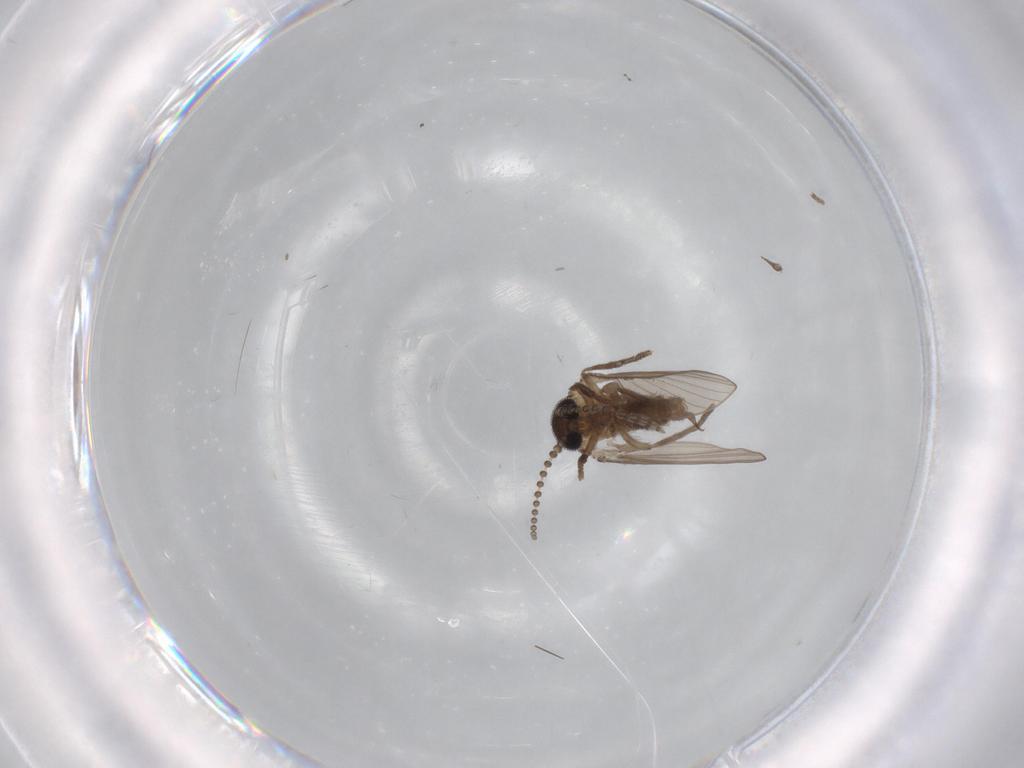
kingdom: Animalia
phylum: Arthropoda
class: Insecta
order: Diptera
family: Psychodidae
